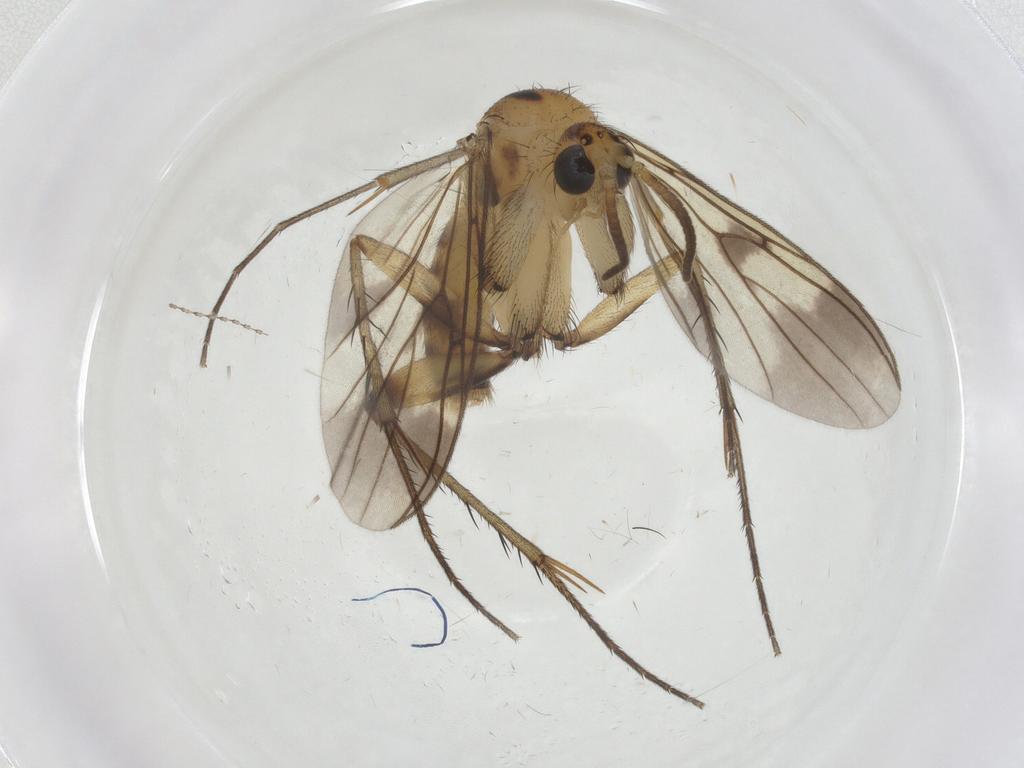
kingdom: Animalia
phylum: Arthropoda
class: Insecta
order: Diptera
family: Mycetophilidae
